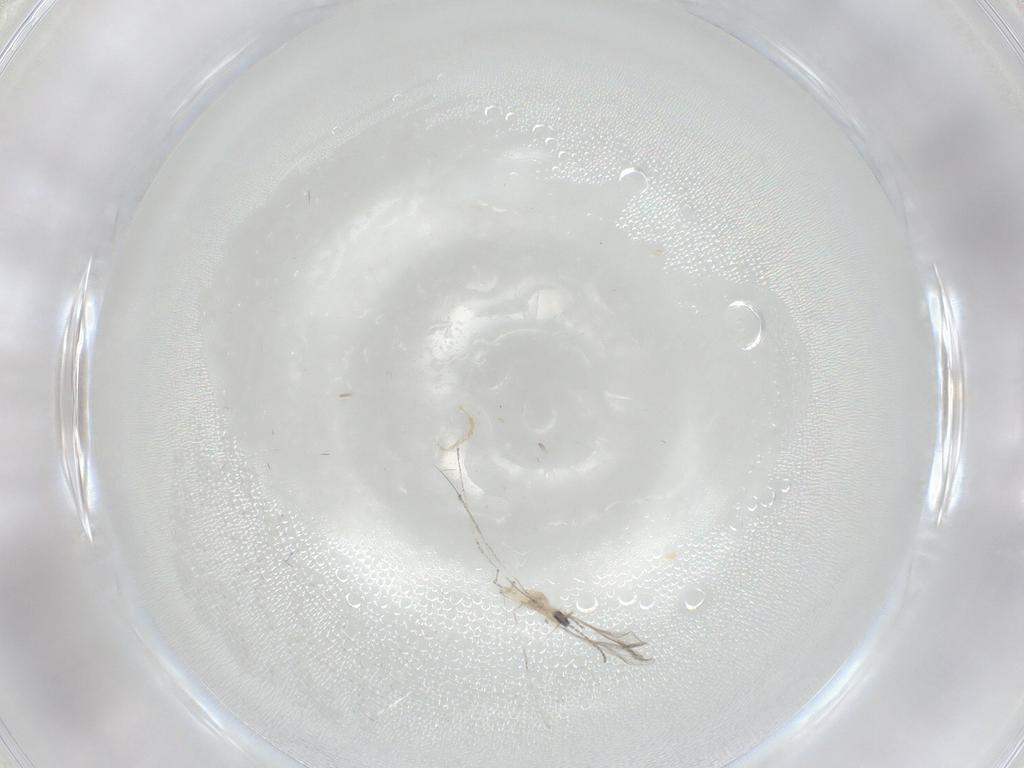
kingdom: Animalia
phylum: Arthropoda
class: Insecta
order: Diptera
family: Cecidomyiidae
